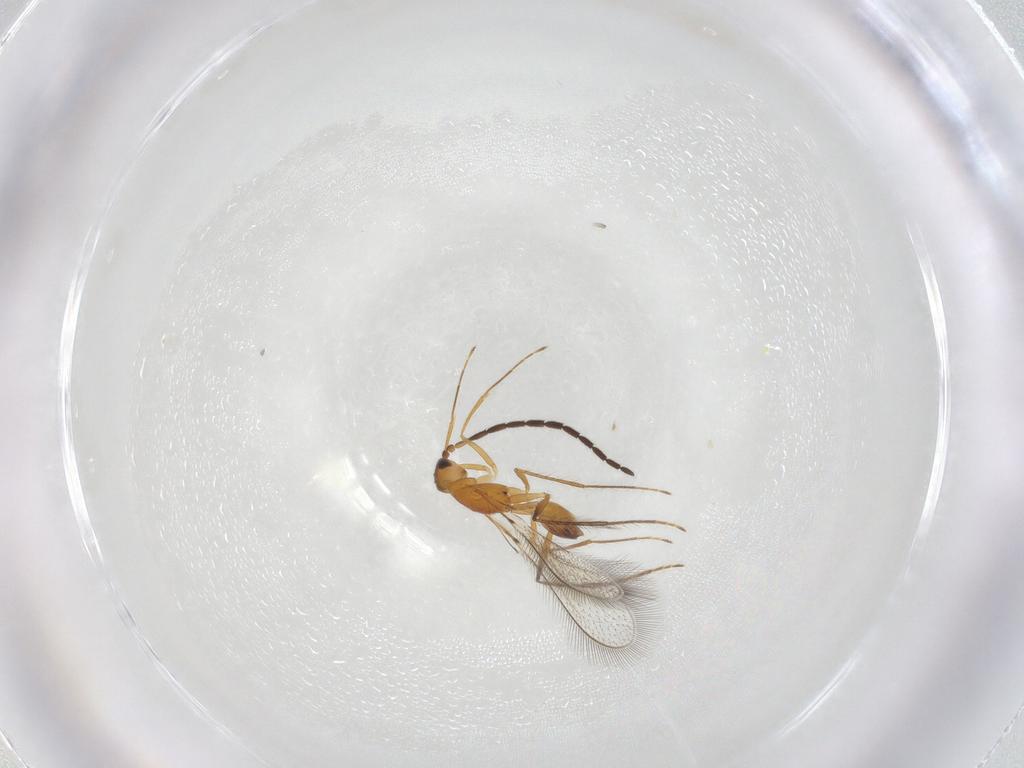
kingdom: Animalia
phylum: Arthropoda
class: Insecta
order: Hymenoptera
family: Mymaridae
